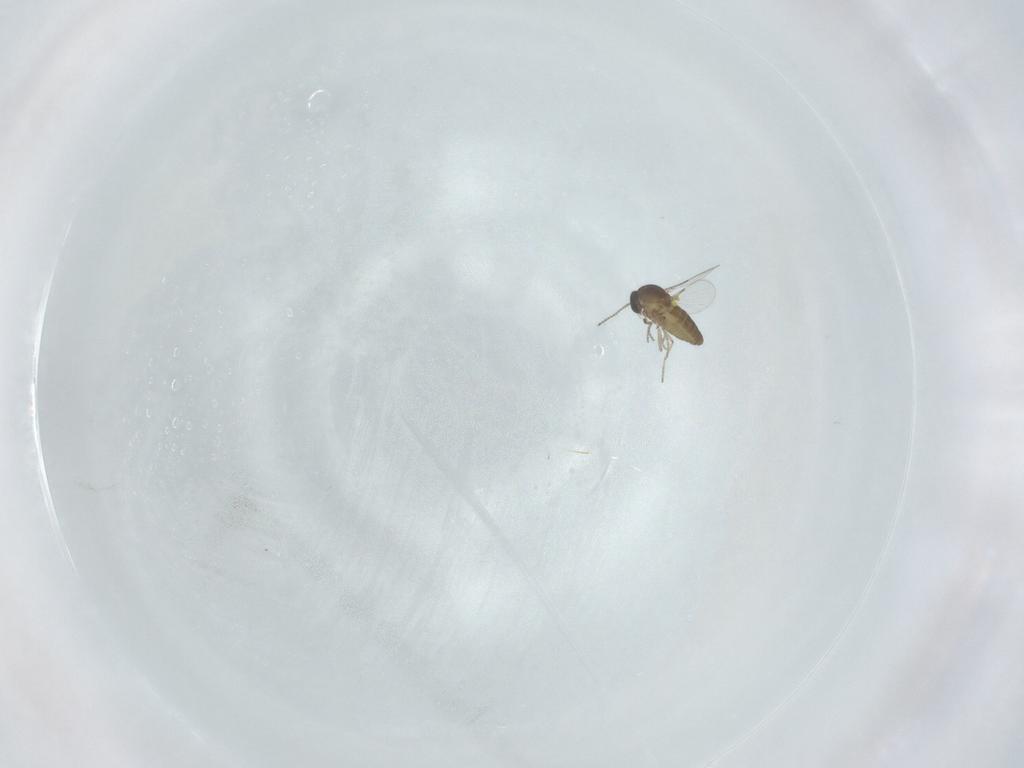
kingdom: Animalia
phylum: Arthropoda
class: Insecta
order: Diptera
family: Ceratopogonidae
